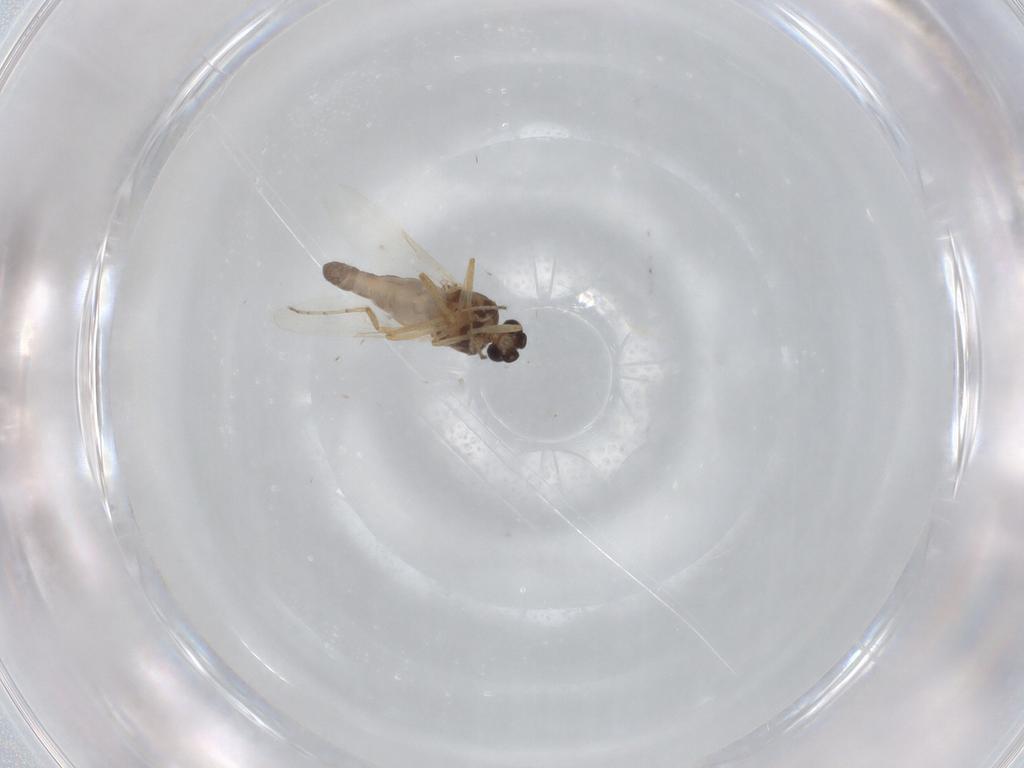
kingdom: Animalia
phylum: Arthropoda
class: Insecta
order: Diptera
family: Ceratopogonidae
